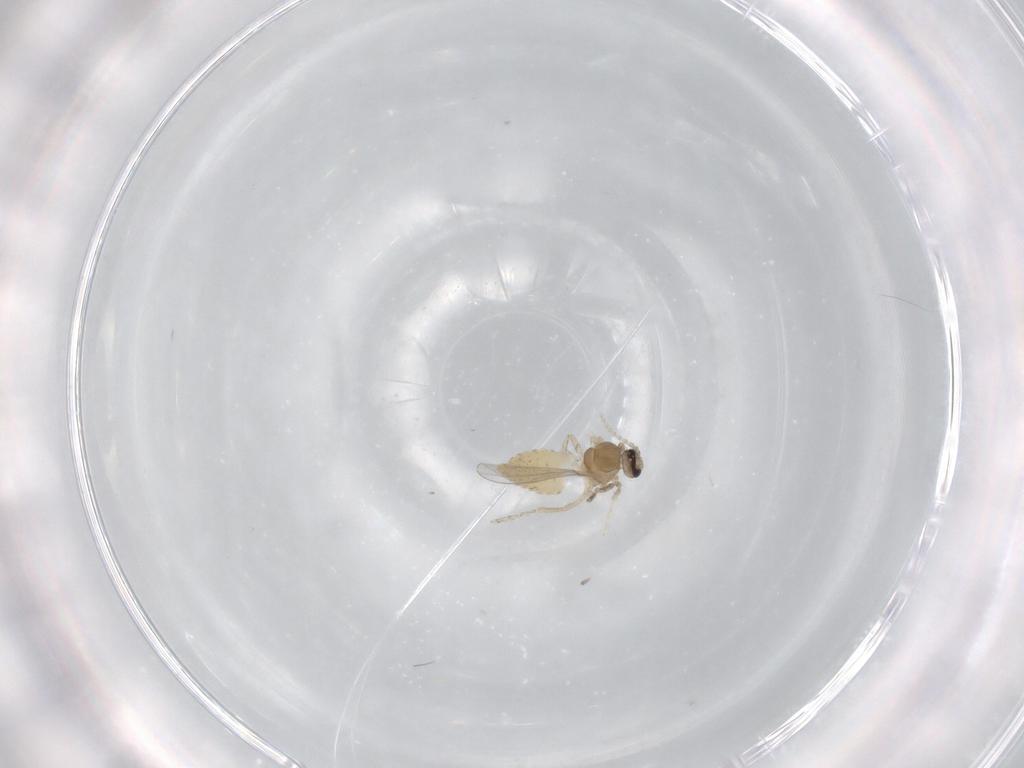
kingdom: Animalia
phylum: Arthropoda
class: Insecta
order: Diptera
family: Cecidomyiidae
